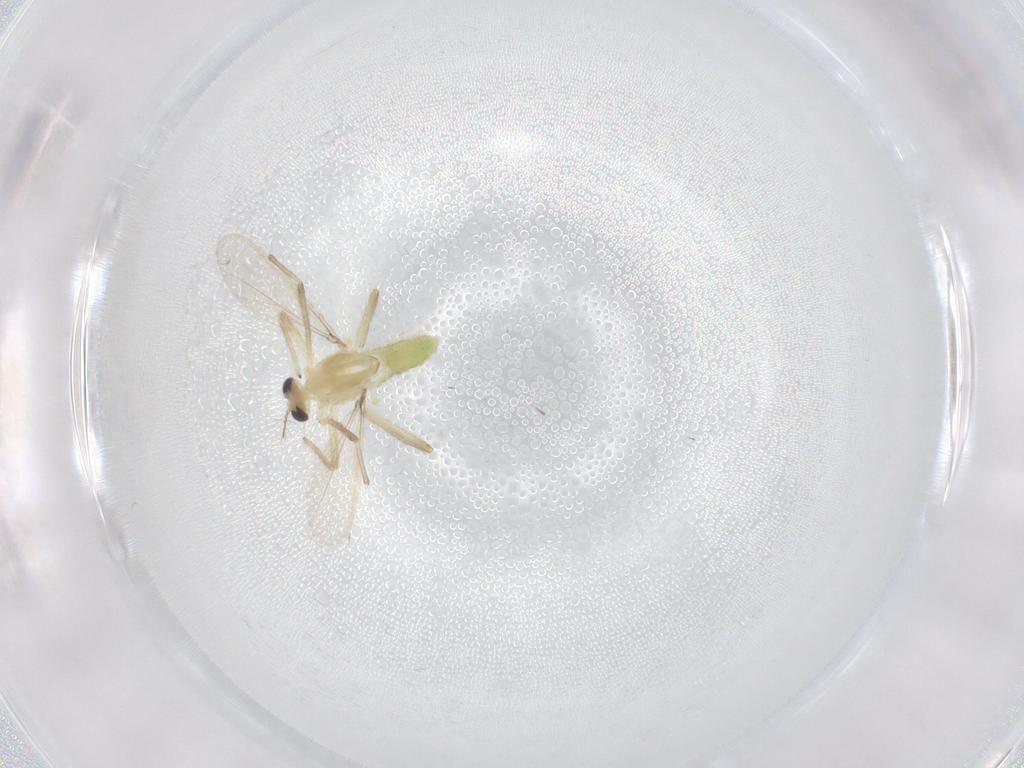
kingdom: Animalia
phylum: Arthropoda
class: Insecta
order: Diptera
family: Chironomidae
